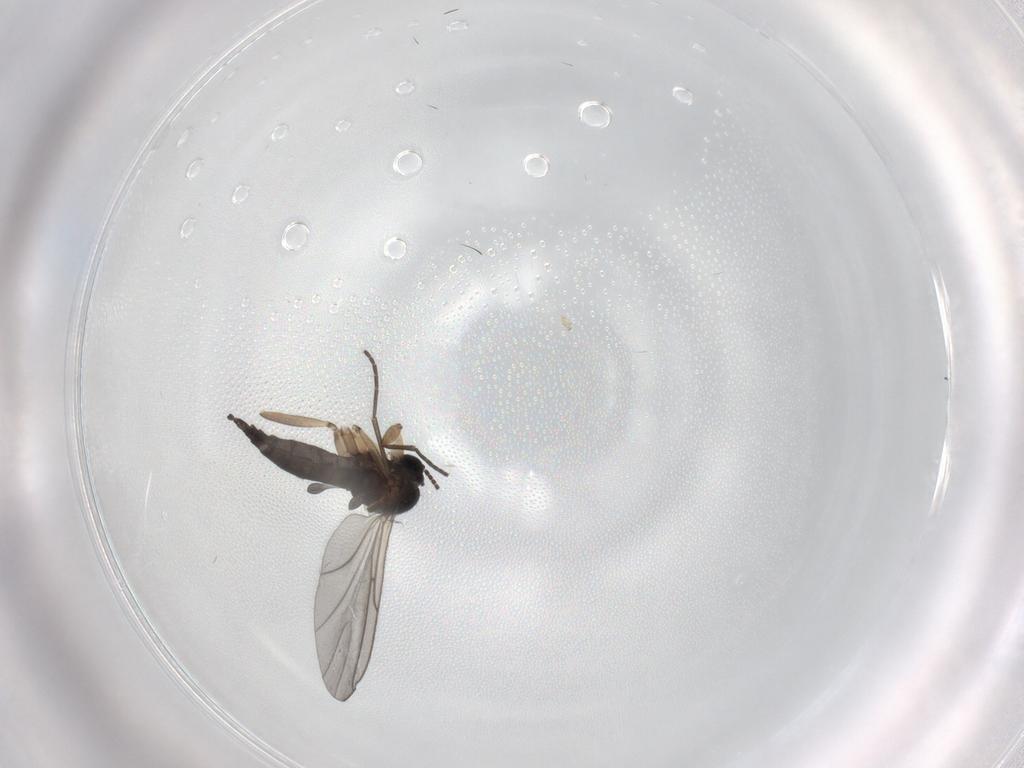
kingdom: Animalia
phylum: Arthropoda
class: Insecta
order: Diptera
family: Sciaridae
